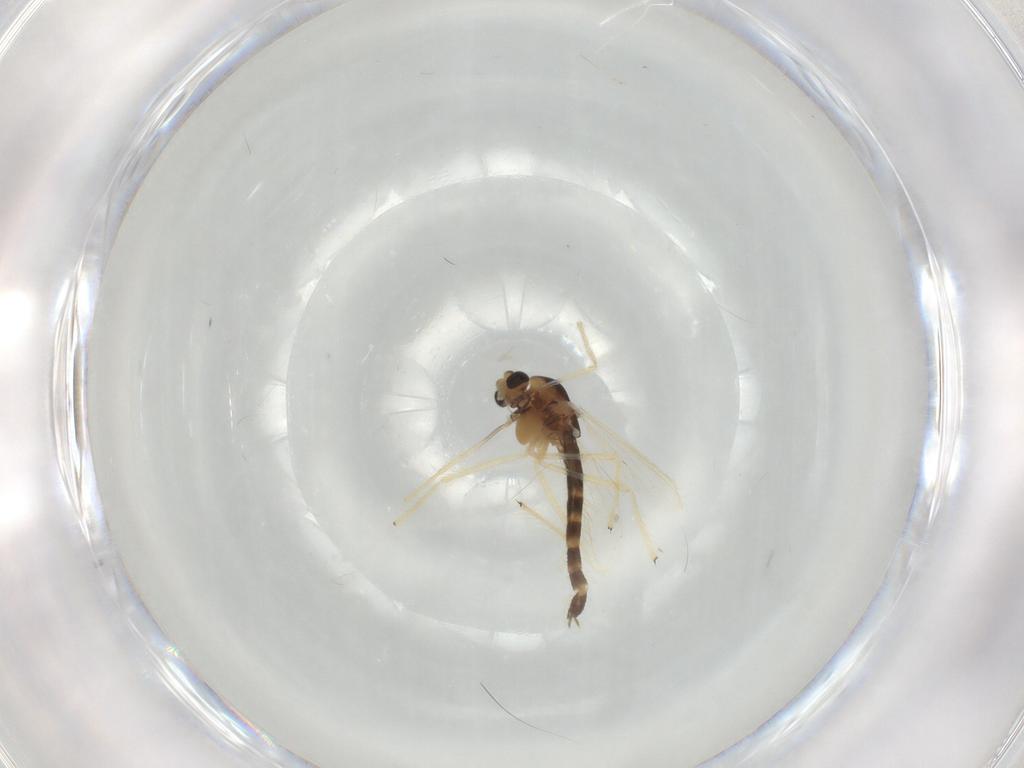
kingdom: Animalia
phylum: Arthropoda
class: Insecta
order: Diptera
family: Chironomidae
